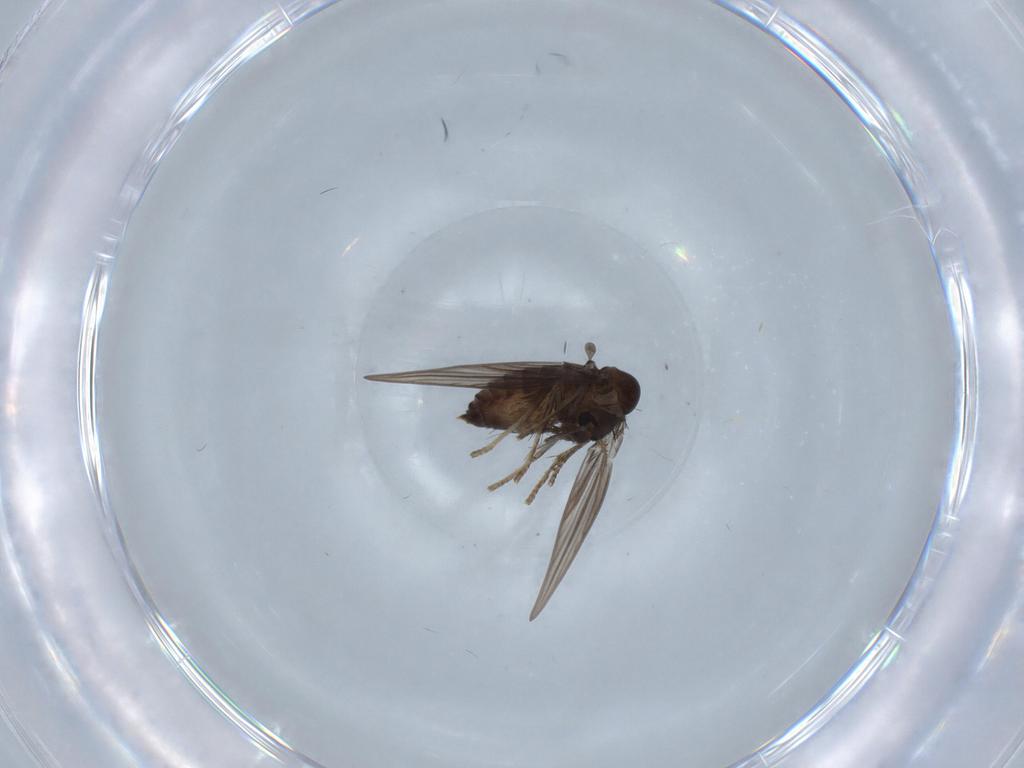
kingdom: Animalia
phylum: Arthropoda
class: Insecta
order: Diptera
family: Psychodidae
